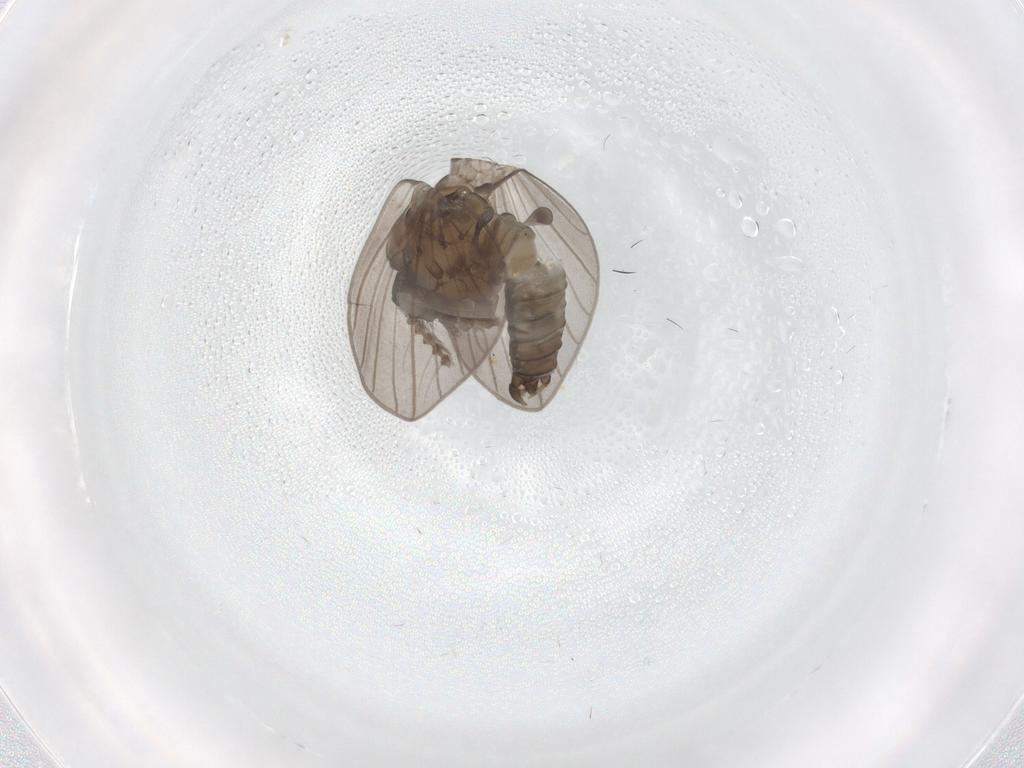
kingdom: Animalia
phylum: Arthropoda
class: Insecta
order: Diptera
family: Psychodidae
